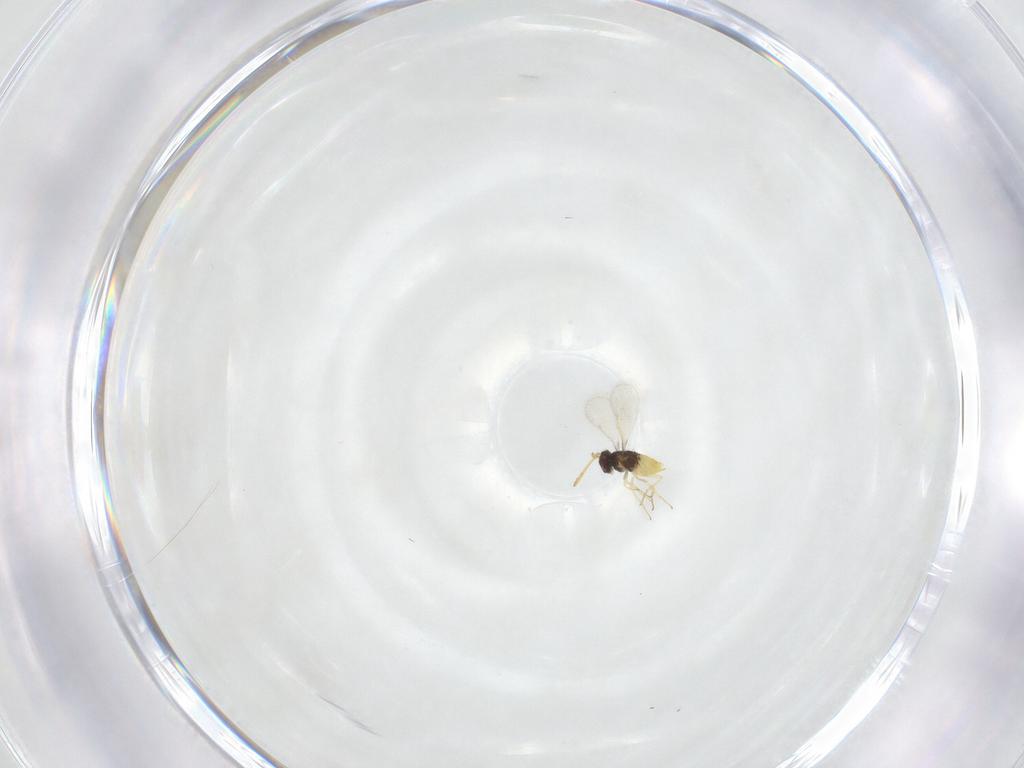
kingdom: Animalia
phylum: Arthropoda
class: Insecta
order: Hymenoptera
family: Aphelinidae
